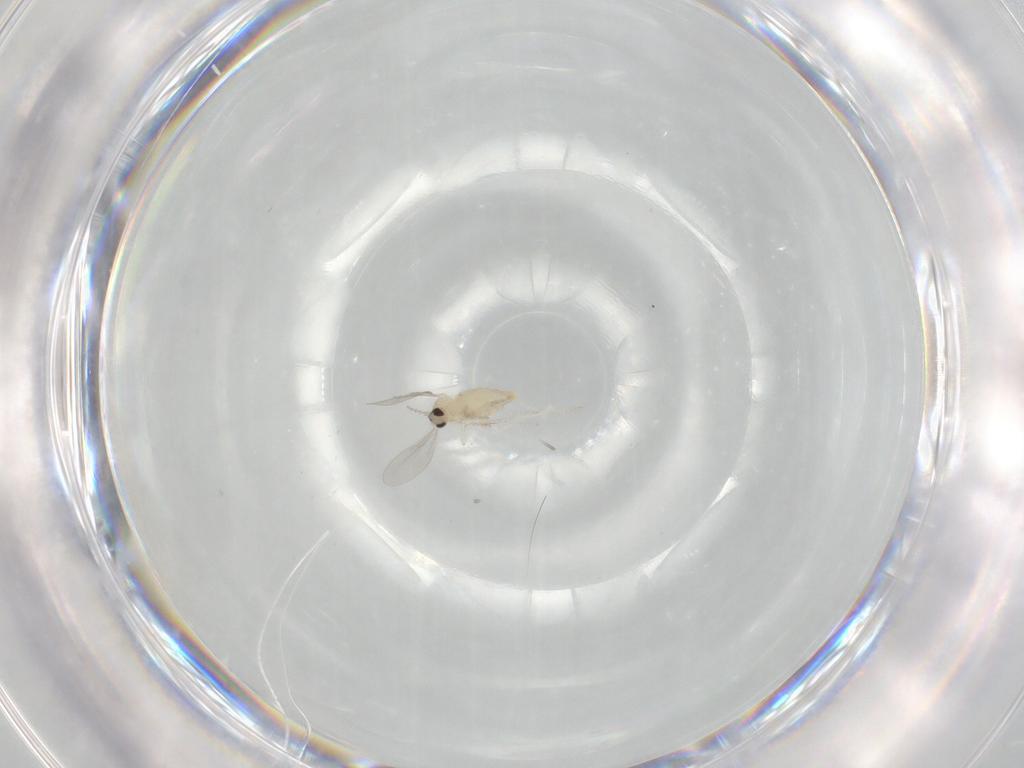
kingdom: Animalia
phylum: Arthropoda
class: Insecta
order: Diptera
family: Cecidomyiidae
